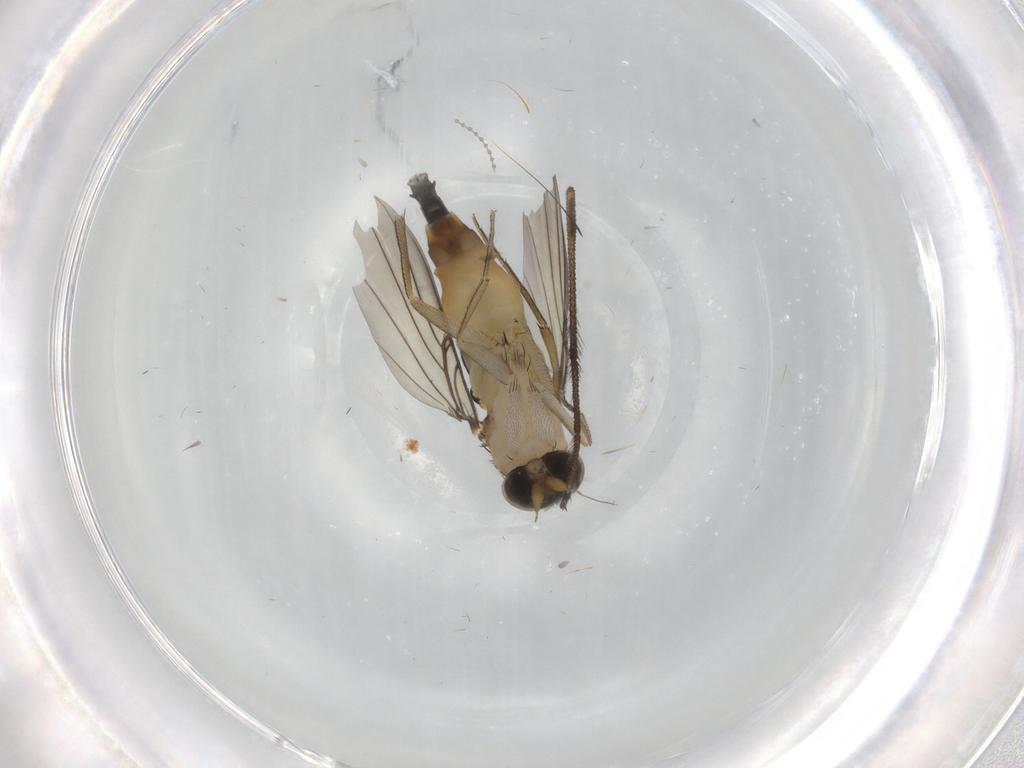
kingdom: Animalia
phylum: Arthropoda
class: Insecta
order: Diptera
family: Phoridae
